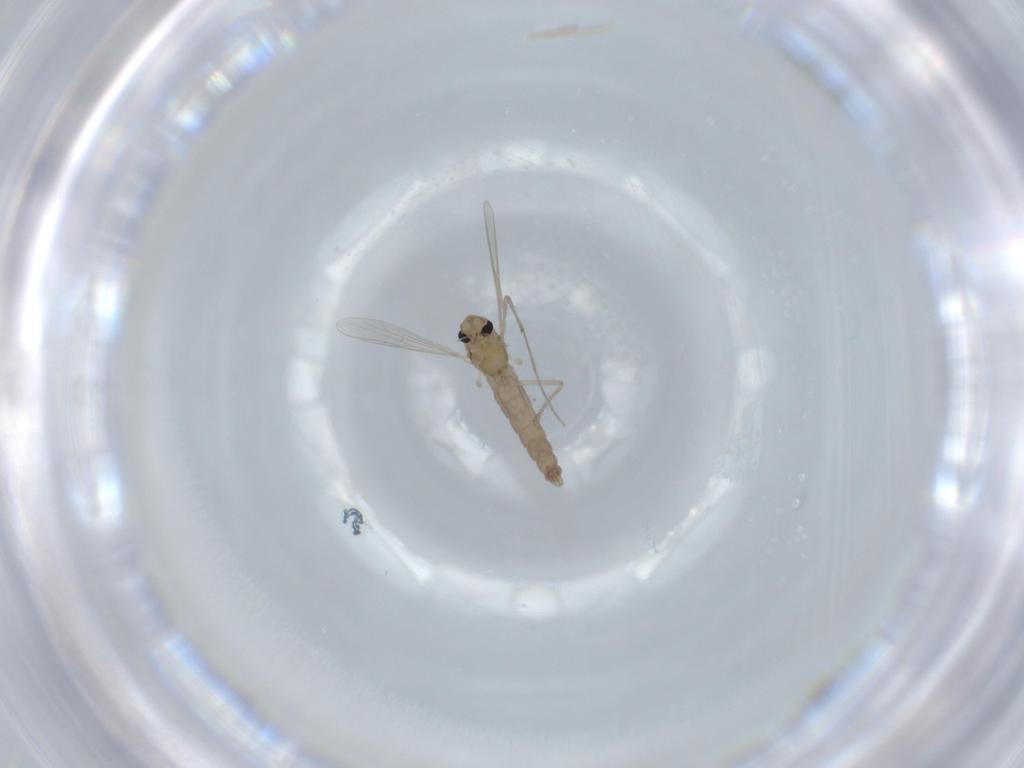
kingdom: Animalia
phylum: Arthropoda
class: Insecta
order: Diptera
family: Chironomidae
